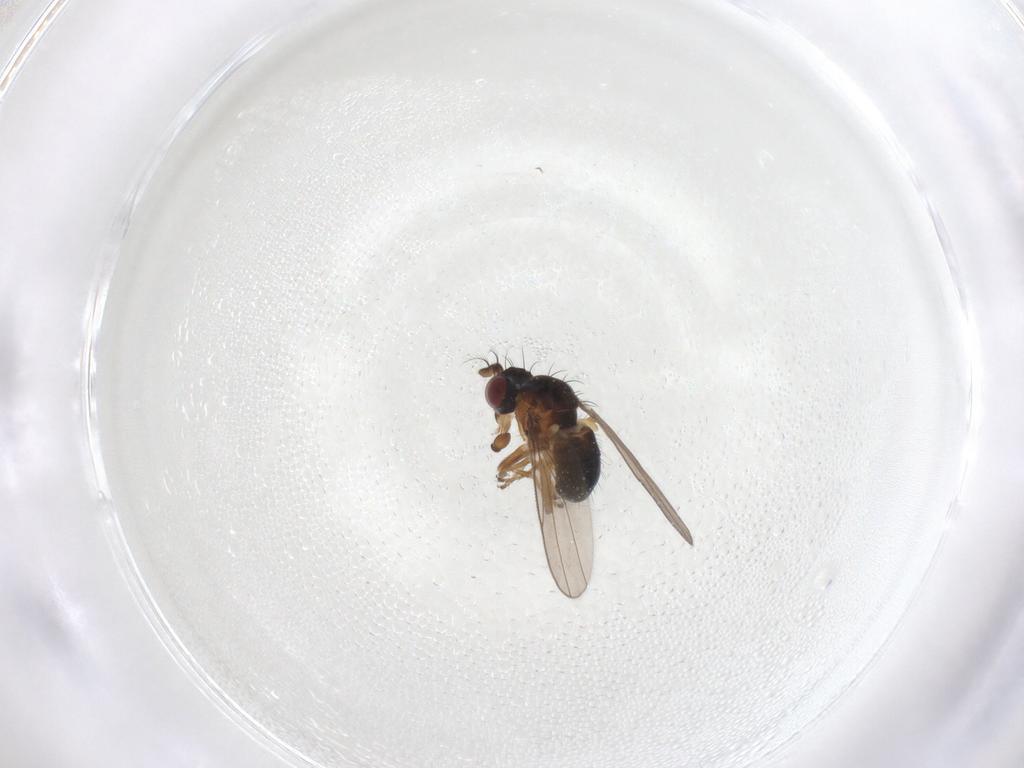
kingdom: Animalia
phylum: Arthropoda
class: Insecta
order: Diptera
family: Ephydridae
